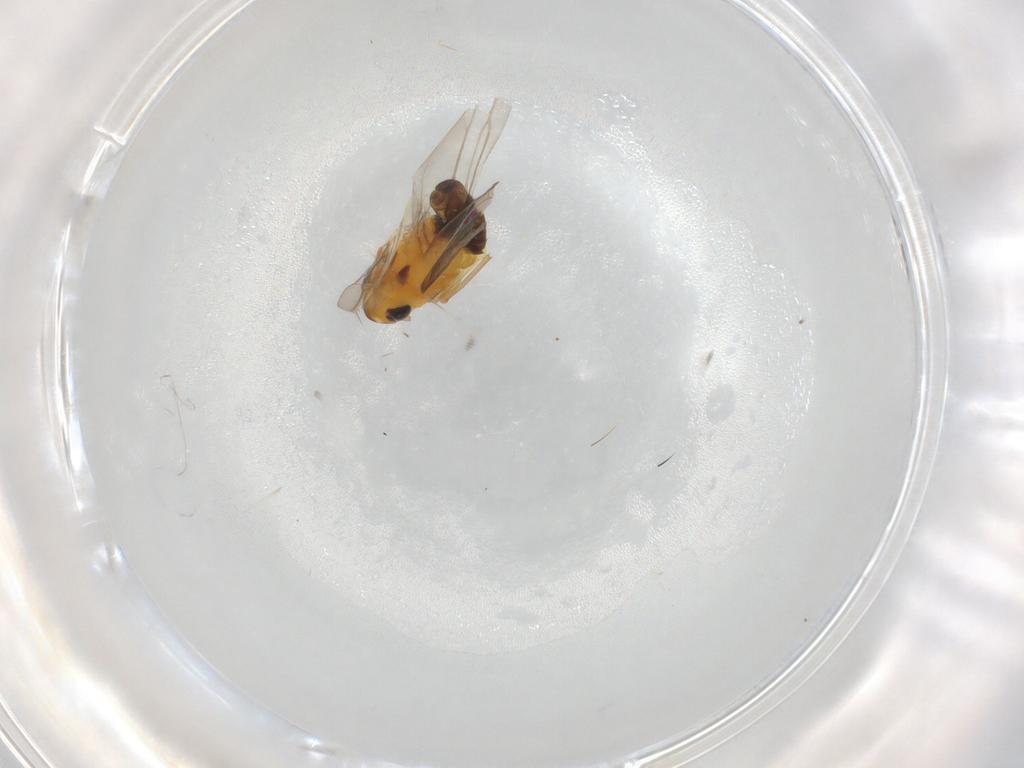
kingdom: Animalia
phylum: Arthropoda
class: Insecta
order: Hemiptera
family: Cicadellidae
